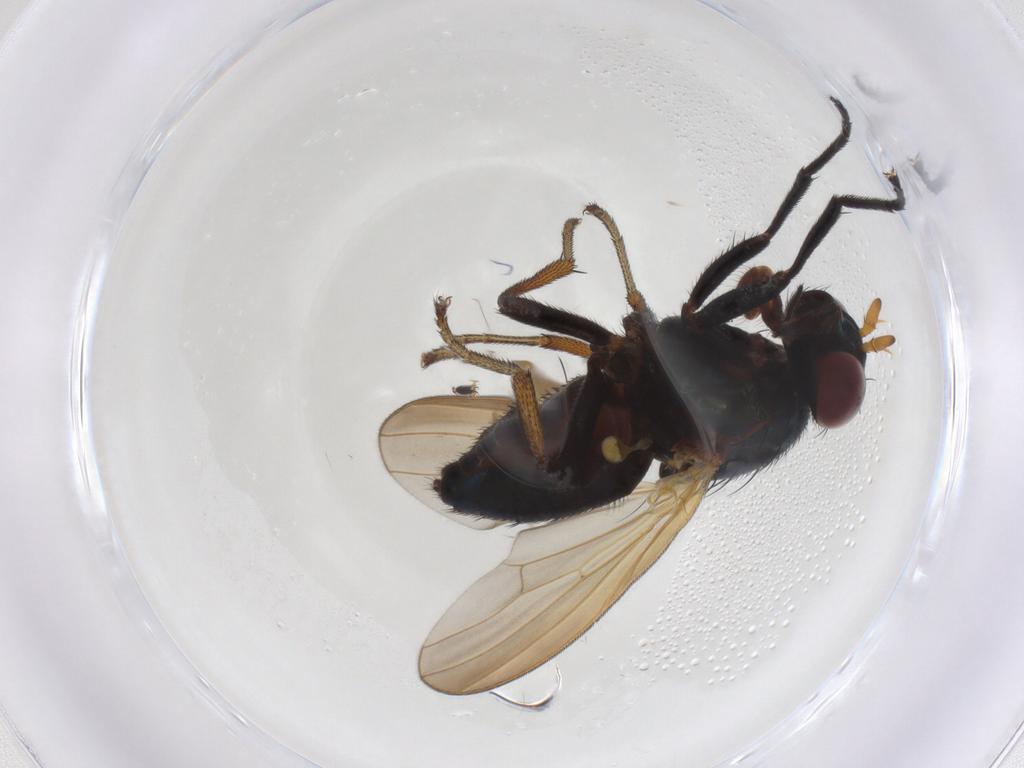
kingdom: Animalia
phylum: Arthropoda
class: Insecta
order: Diptera
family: Lauxaniidae
